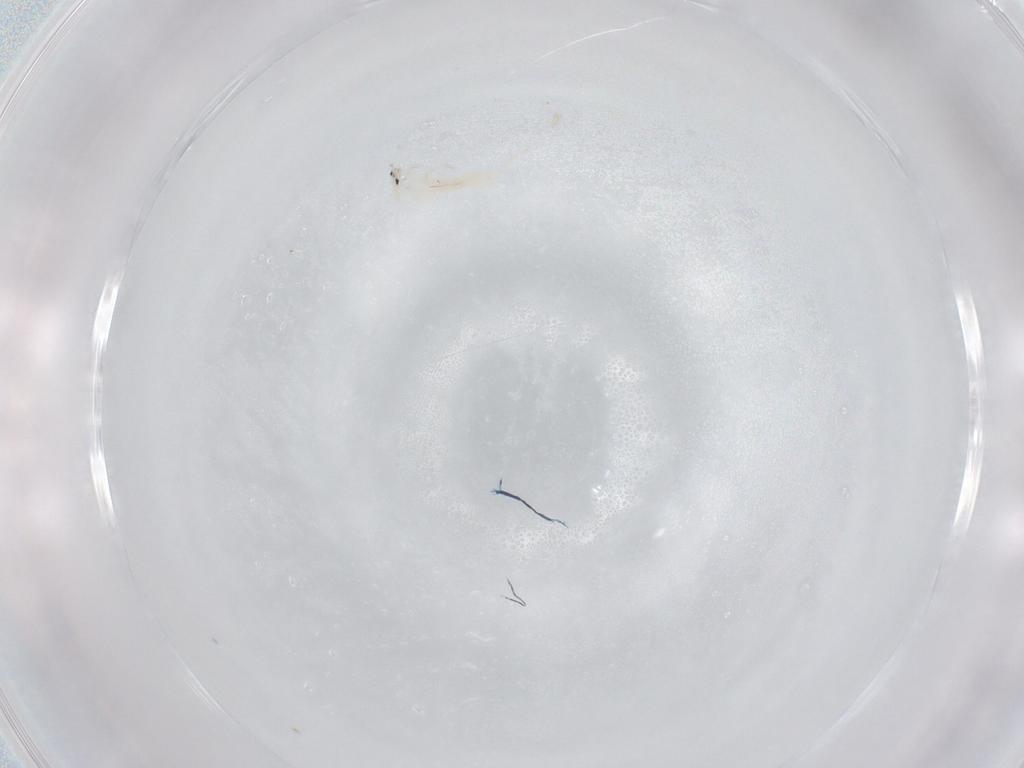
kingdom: Animalia
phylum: Arthropoda
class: Collembola
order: Entomobryomorpha
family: Entomobryidae
